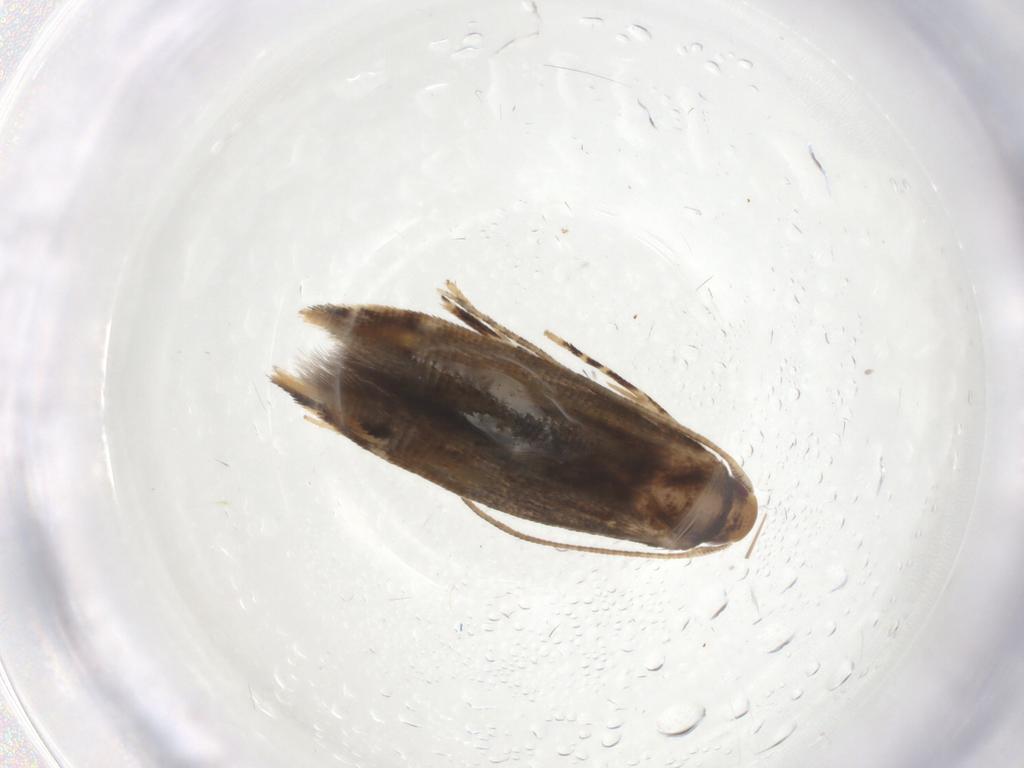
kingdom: Animalia
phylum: Arthropoda
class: Insecta
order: Lepidoptera
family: Momphidae
